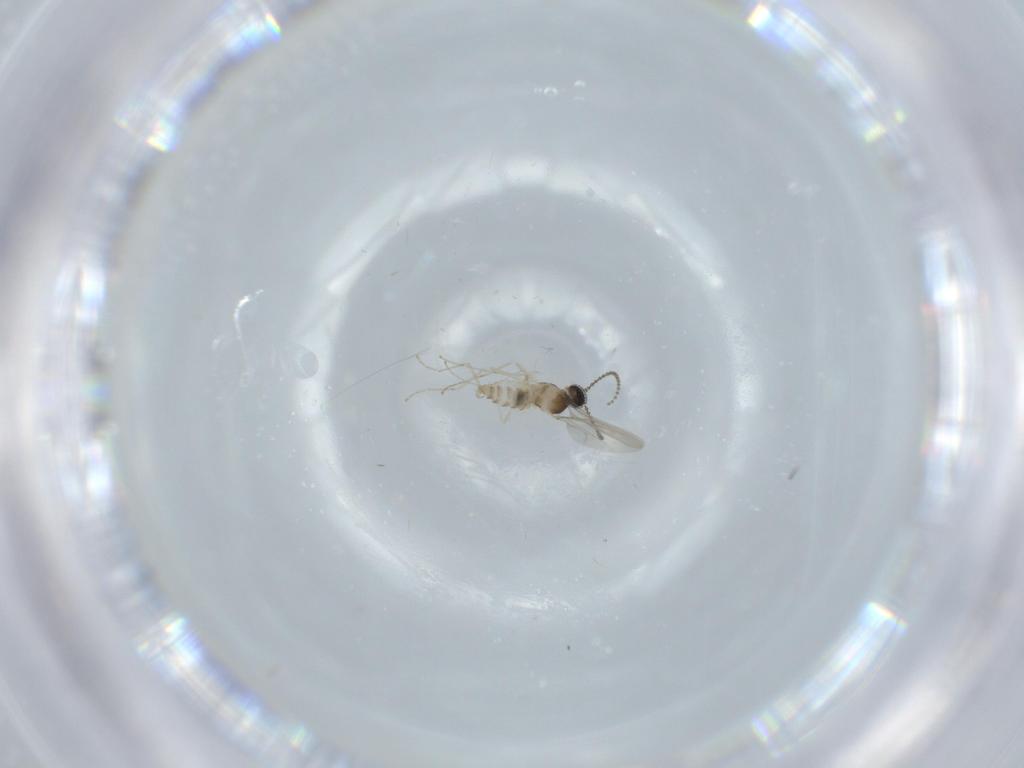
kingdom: Animalia
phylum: Arthropoda
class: Insecta
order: Diptera
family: Cecidomyiidae
